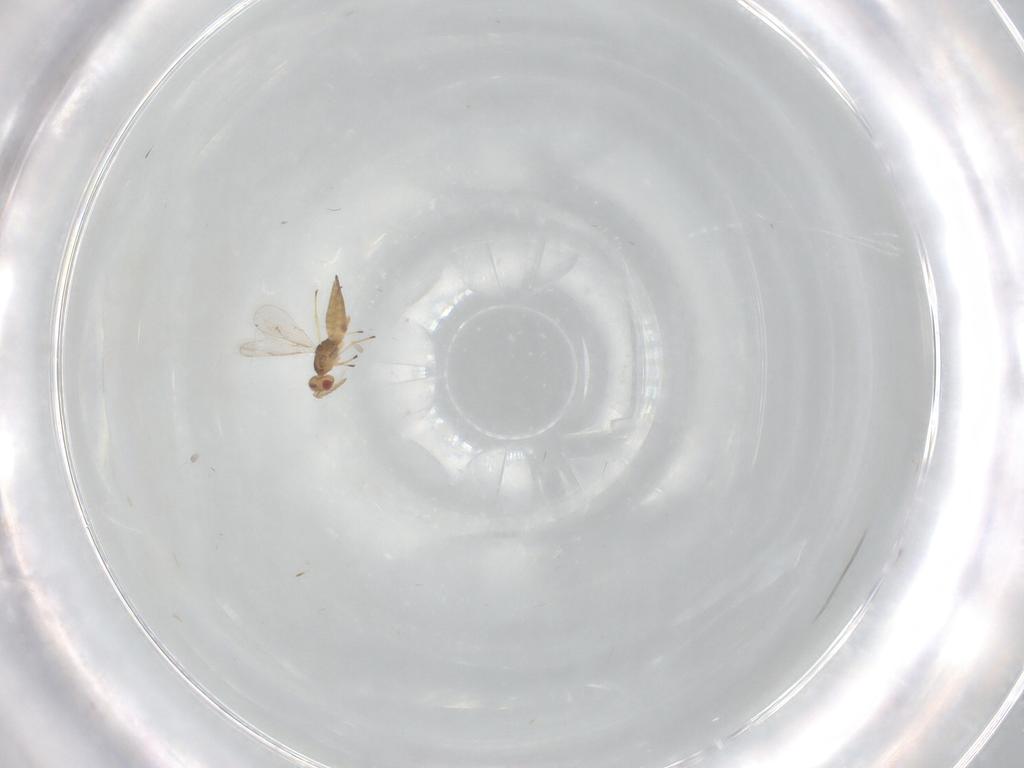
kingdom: Animalia
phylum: Arthropoda
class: Insecta
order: Hymenoptera
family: Eulophidae
